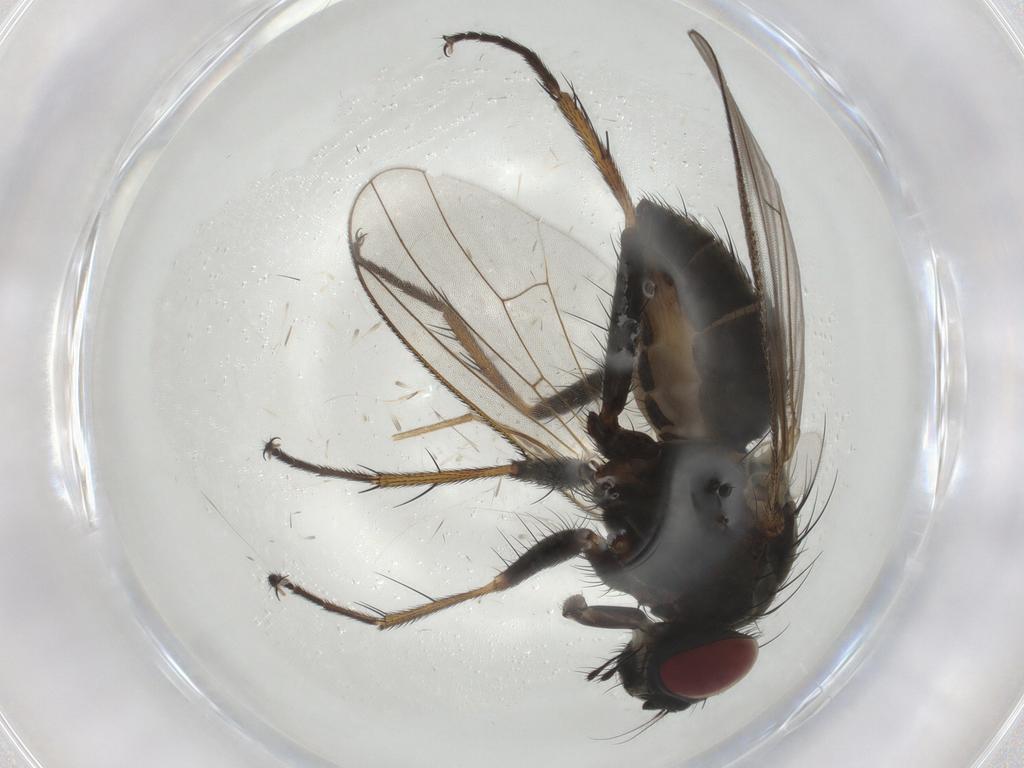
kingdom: Animalia
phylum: Arthropoda
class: Insecta
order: Diptera
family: Muscidae
